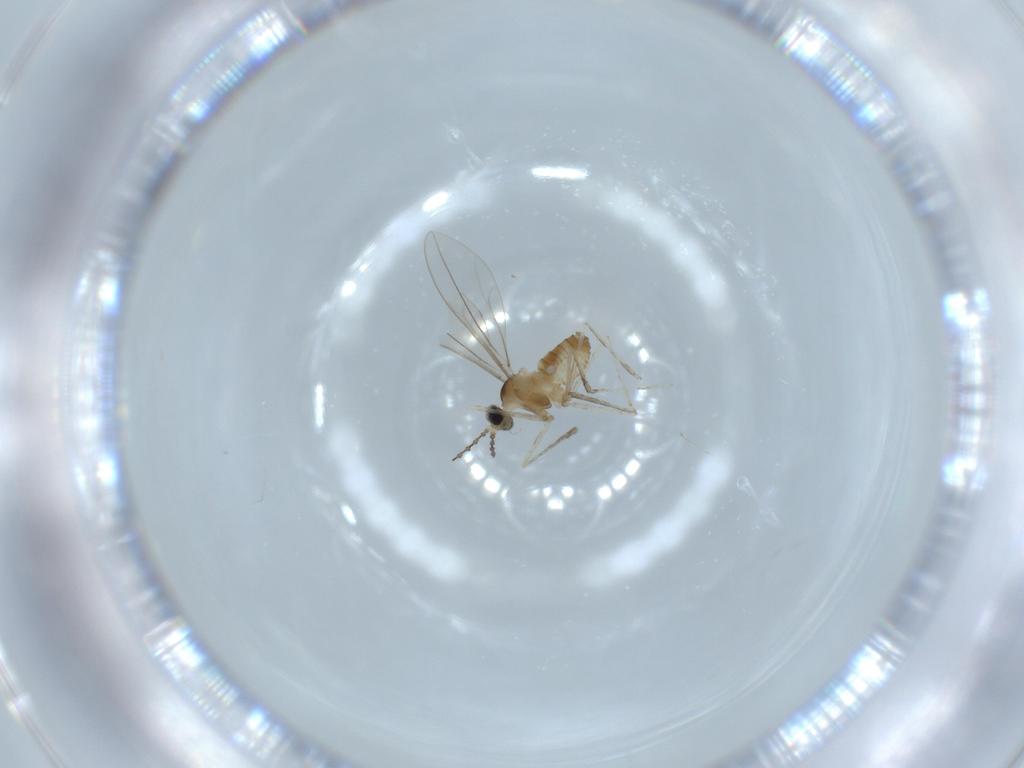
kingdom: Animalia
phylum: Arthropoda
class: Insecta
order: Diptera
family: Cecidomyiidae
